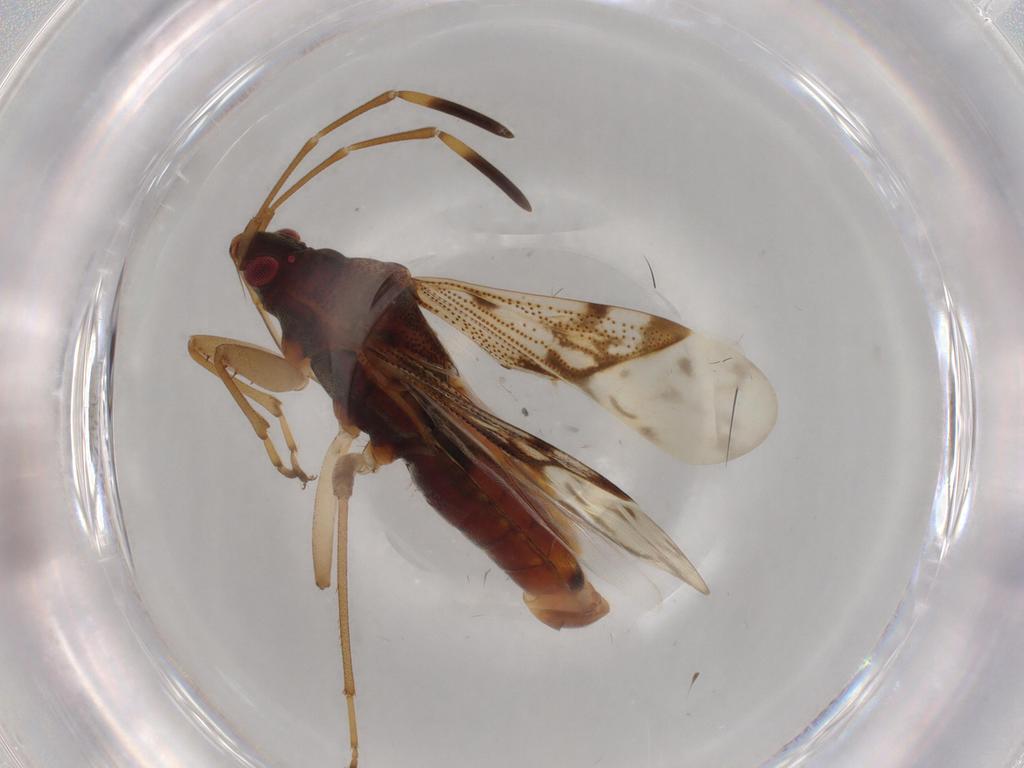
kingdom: Animalia
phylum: Arthropoda
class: Insecta
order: Hemiptera
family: Rhyparochromidae
